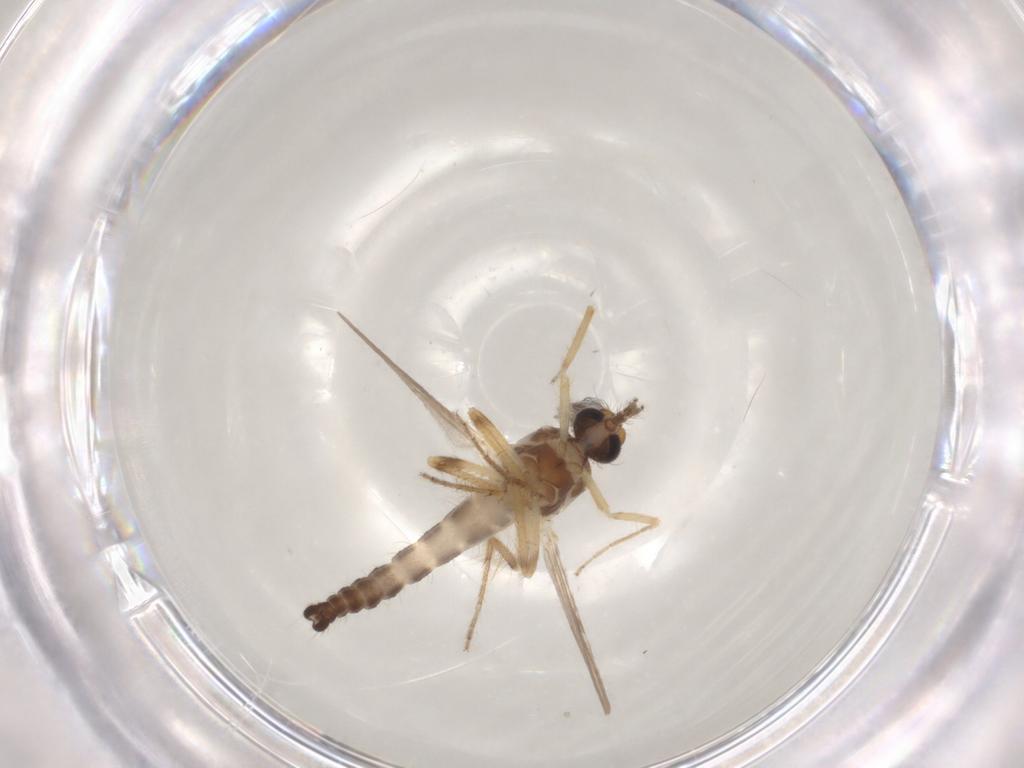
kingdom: Animalia
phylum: Arthropoda
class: Insecta
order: Diptera
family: Ceratopogonidae
